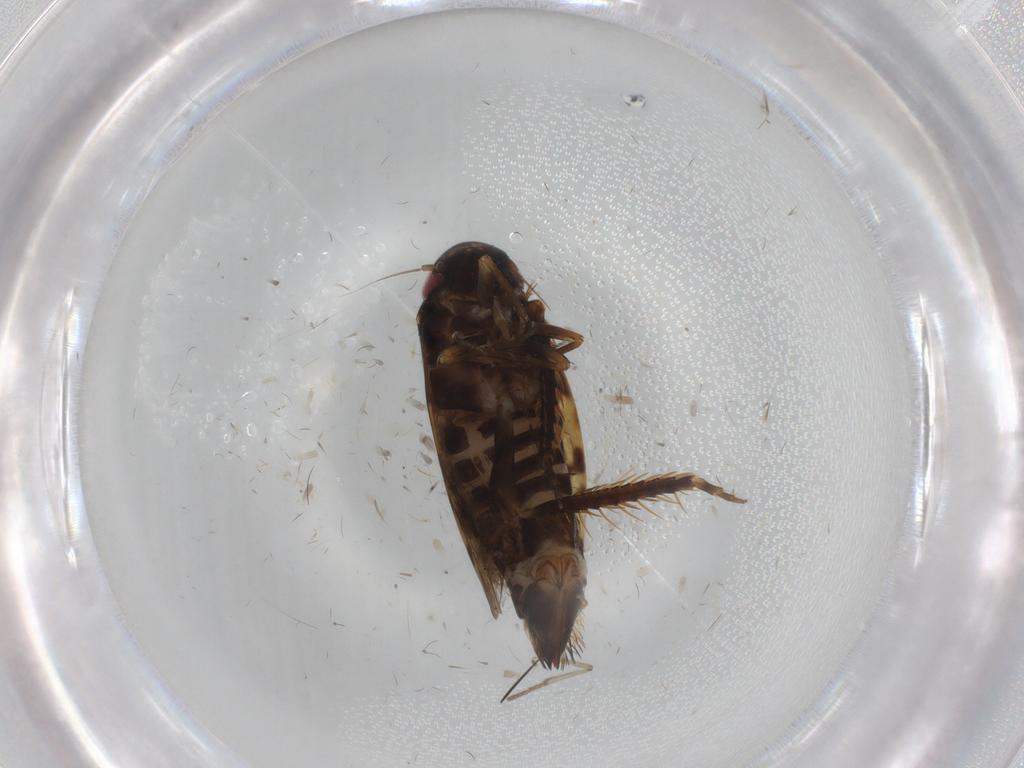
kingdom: Animalia
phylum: Arthropoda
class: Insecta
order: Hemiptera
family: Cicadellidae
